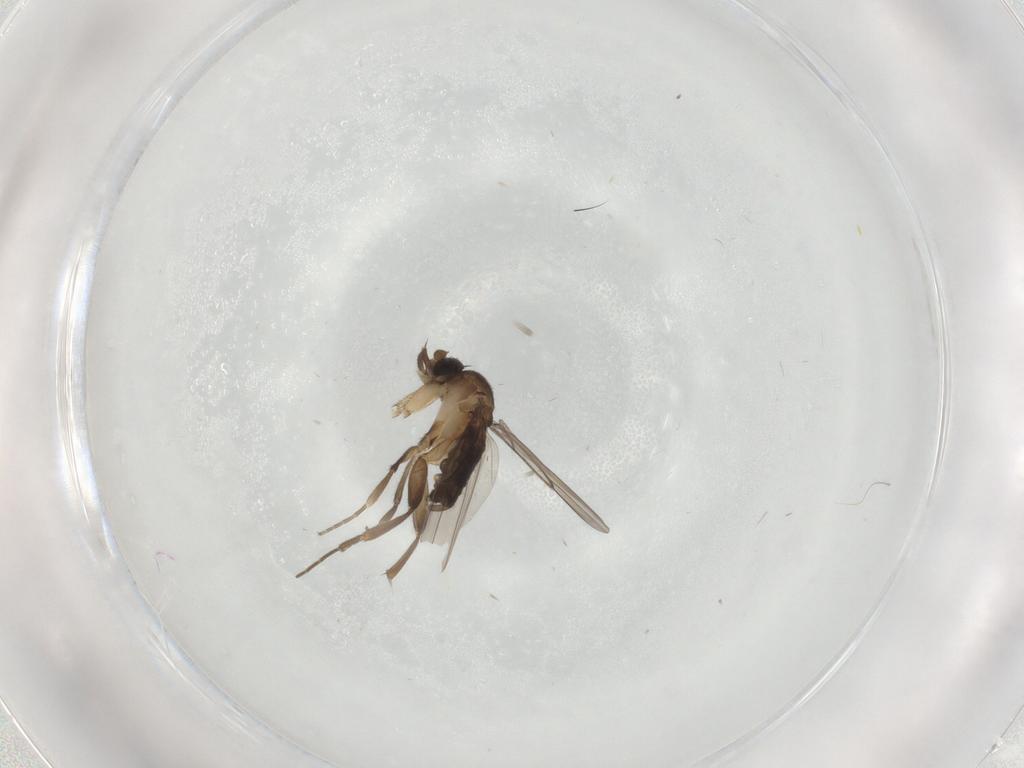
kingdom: Animalia
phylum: Arthropoda
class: Insecta
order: Diptera
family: Phoridae
